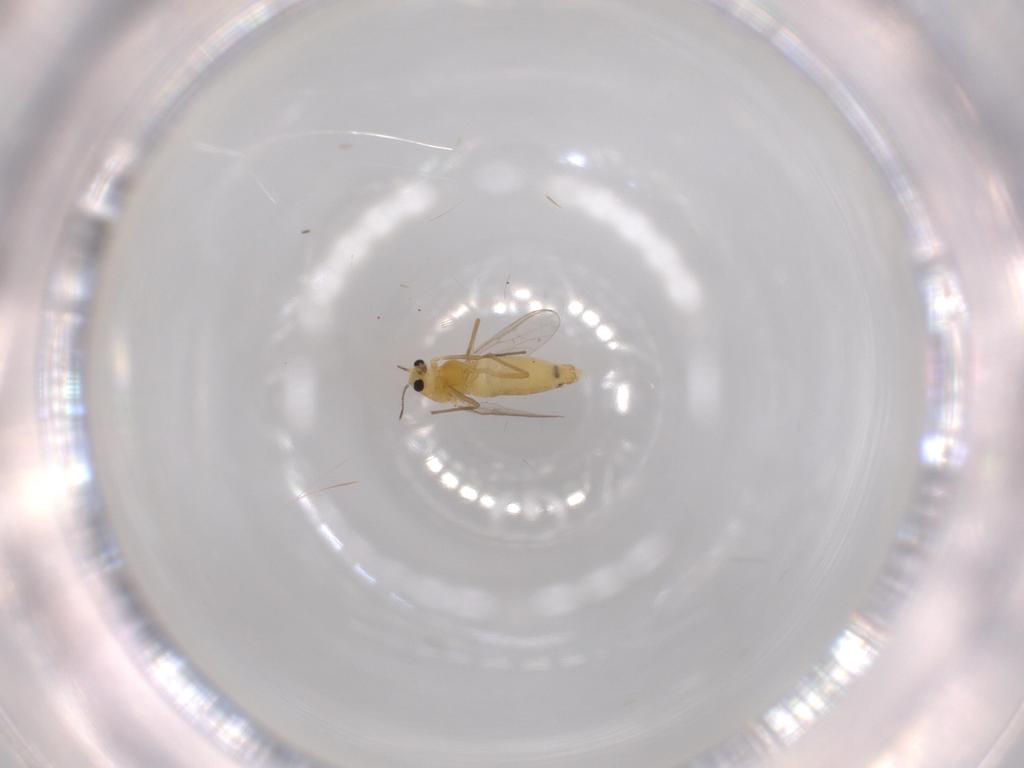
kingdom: Animalia
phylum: Arthropoda
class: Insecta
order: Diptera
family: Chironomidae
